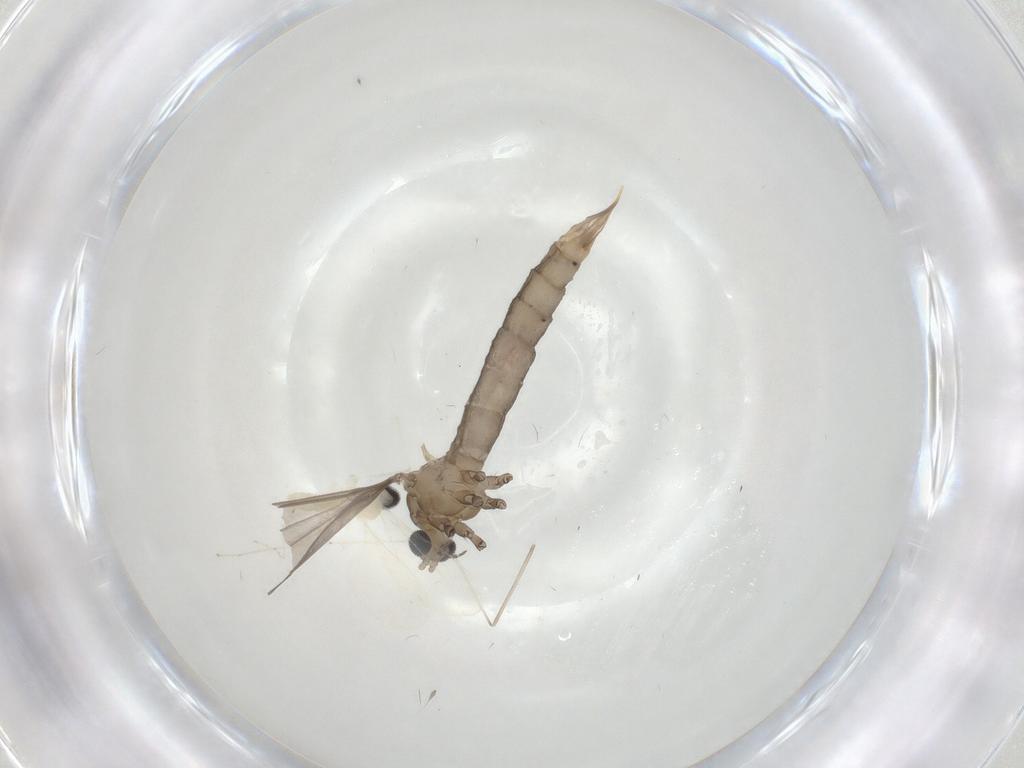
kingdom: Animalia
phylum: Arthropoda
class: Insecta
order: Diptera
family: Limoniidae
